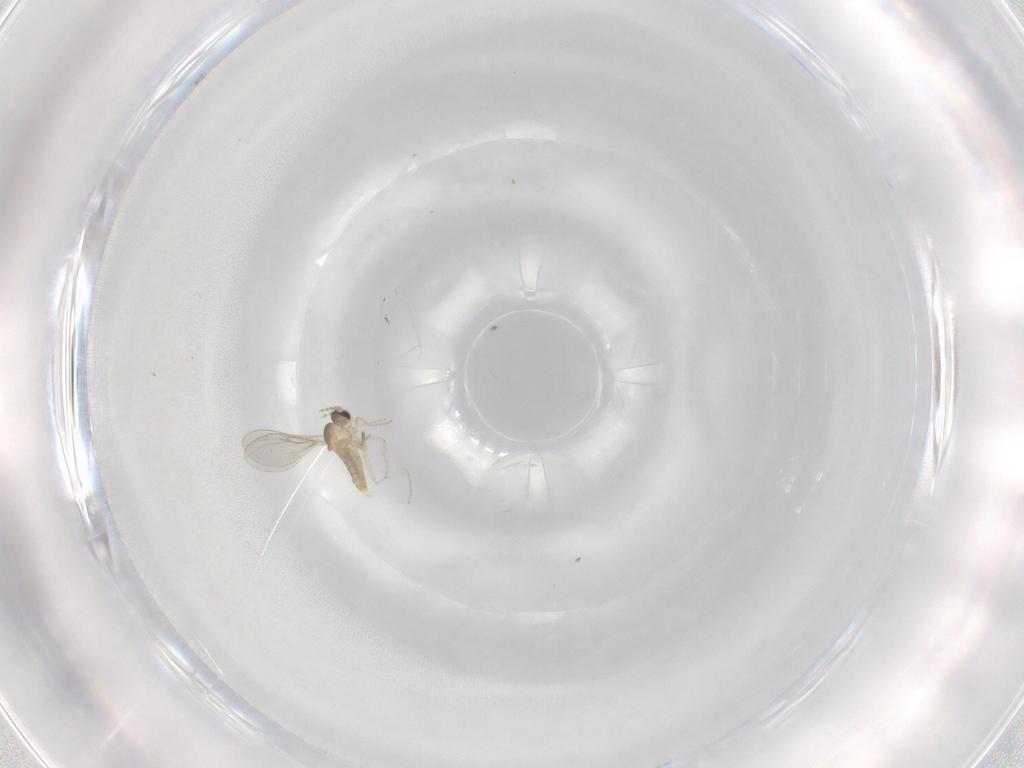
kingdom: Animalia
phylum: Arthropoda
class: Insecta
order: Diptera
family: Cecidomyiidae
